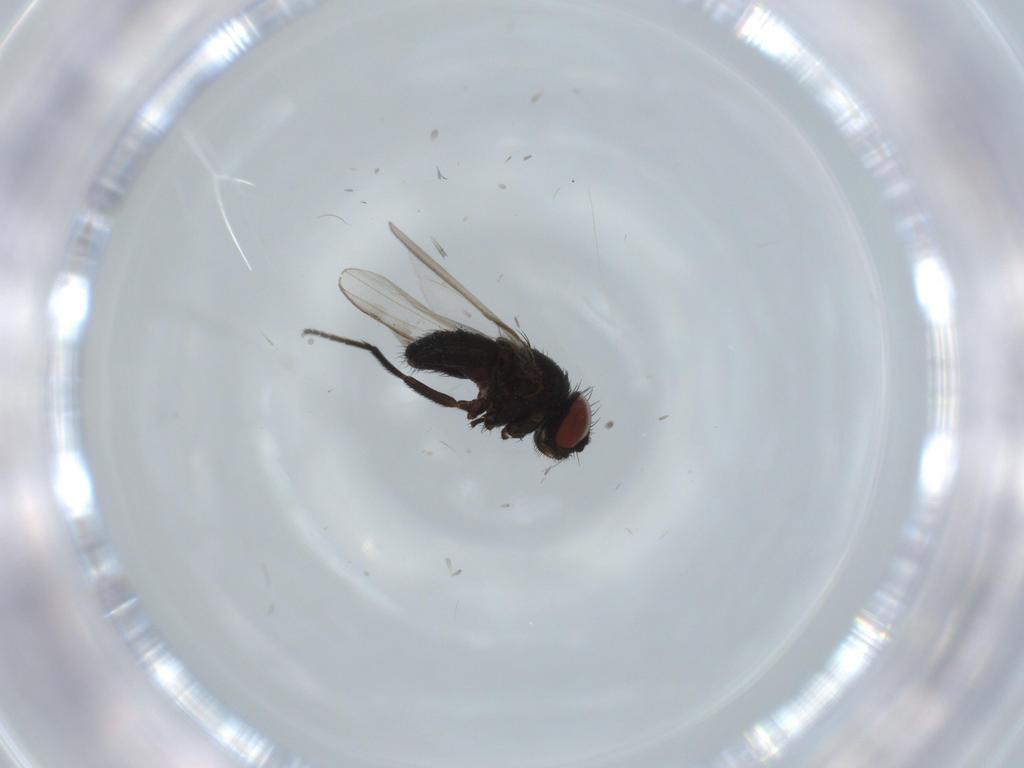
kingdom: Animalia
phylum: Arthropoda
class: Insecta
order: Diptera
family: Milichiidae
